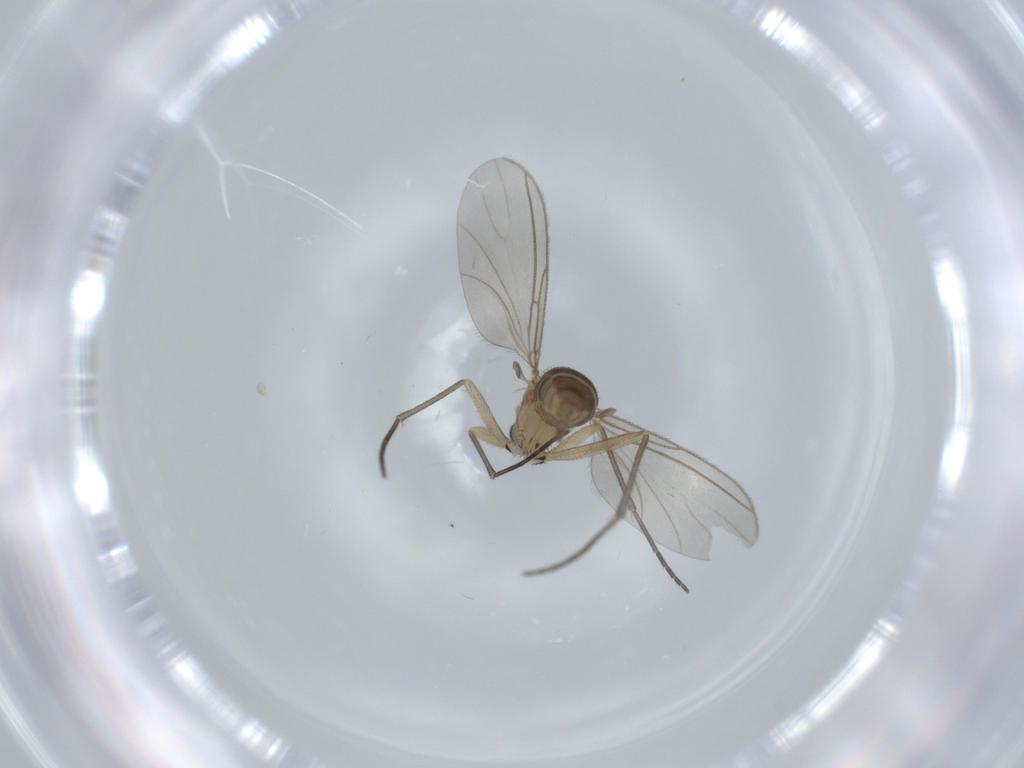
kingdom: Animalia
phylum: Arthropoda
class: Insecta
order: Diptera
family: Sciaridae
